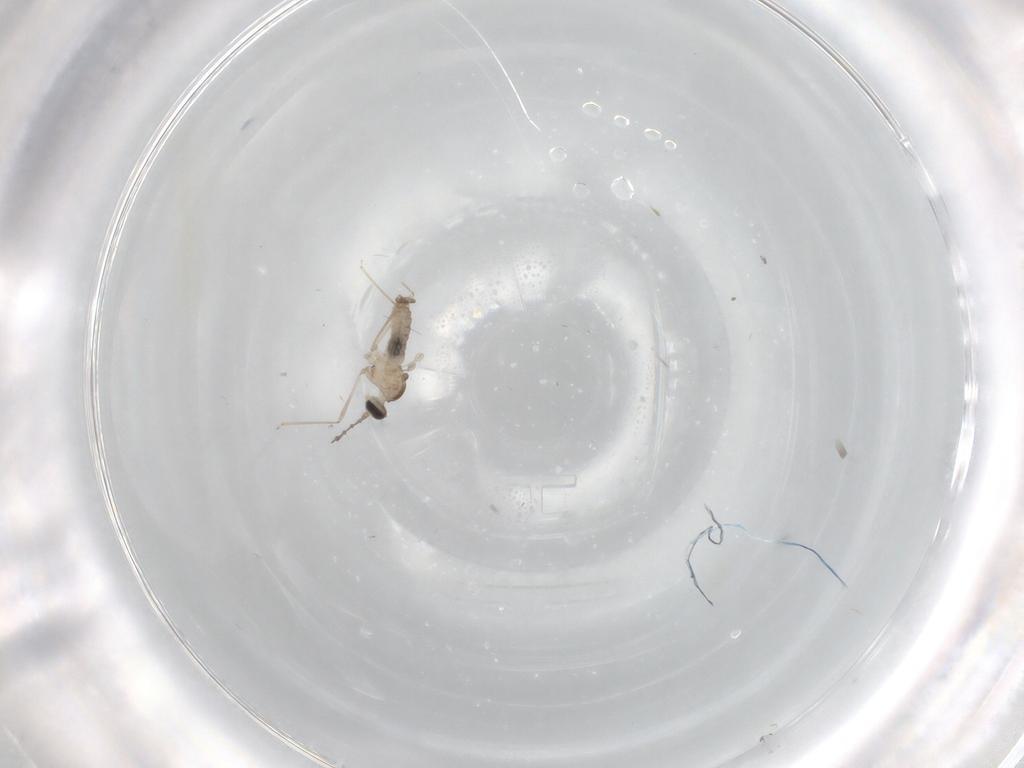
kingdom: Animalia
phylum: Arthropoda
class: Insecta
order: Diptera
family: Sciaridae
